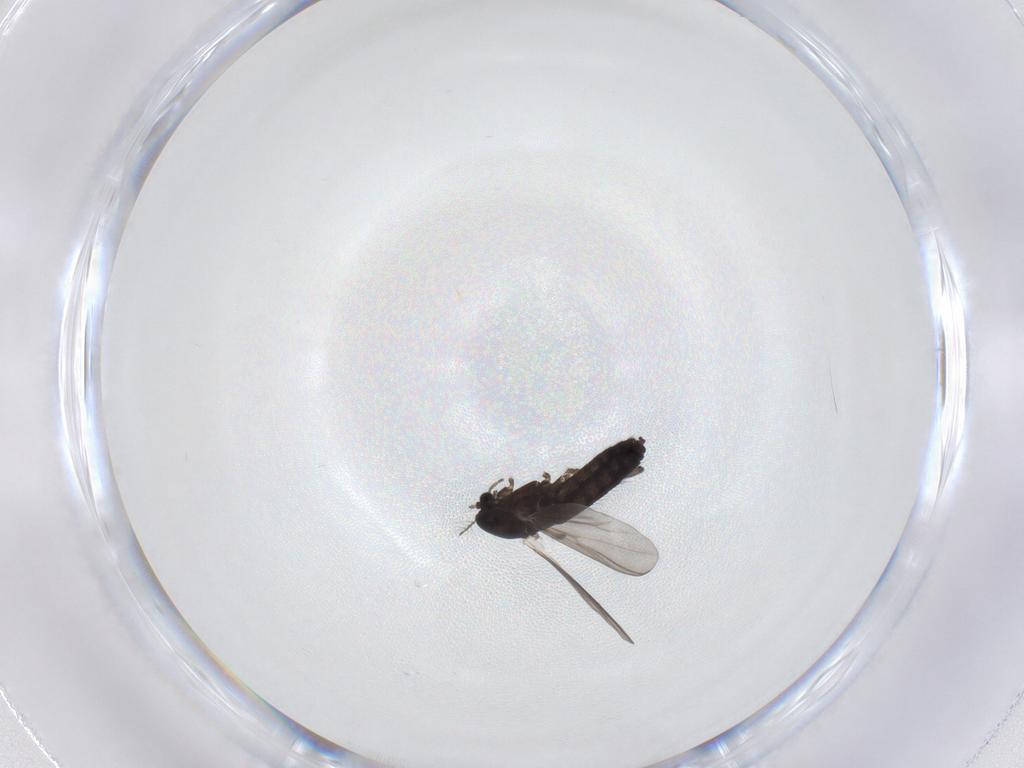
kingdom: Animalia
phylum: Arthropoda
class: Insecta
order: Diptera
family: Chironomidae
